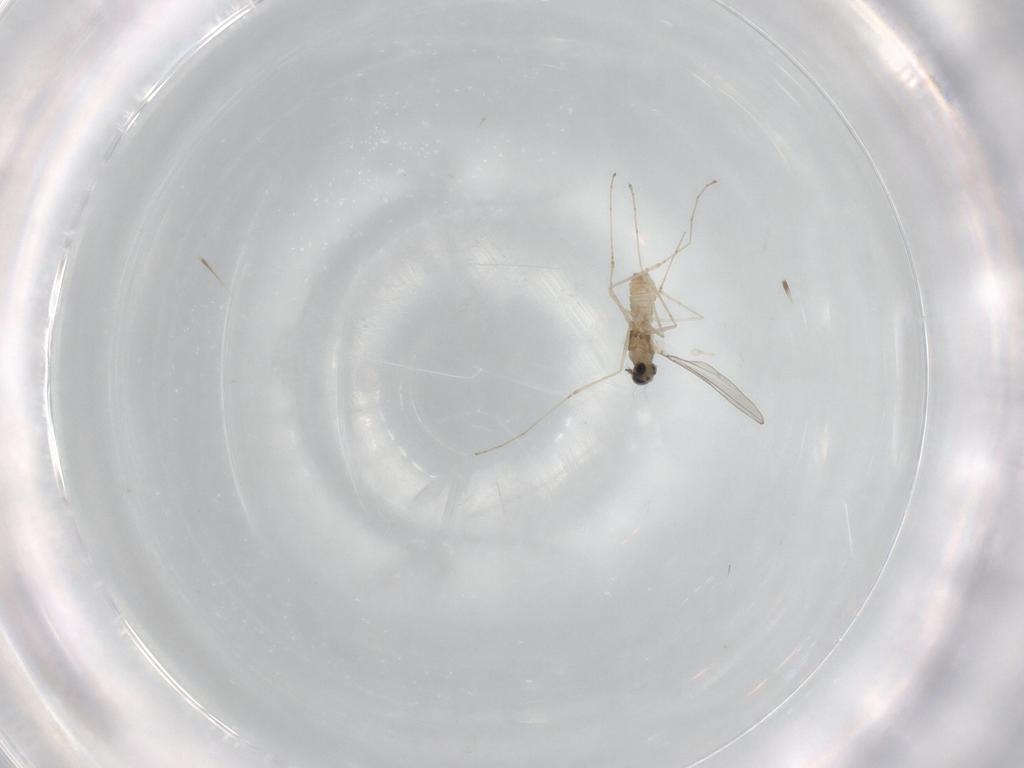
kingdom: Animalia
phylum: Arthropoda
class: Insecta
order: Diptera
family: Cecidomyiidae
